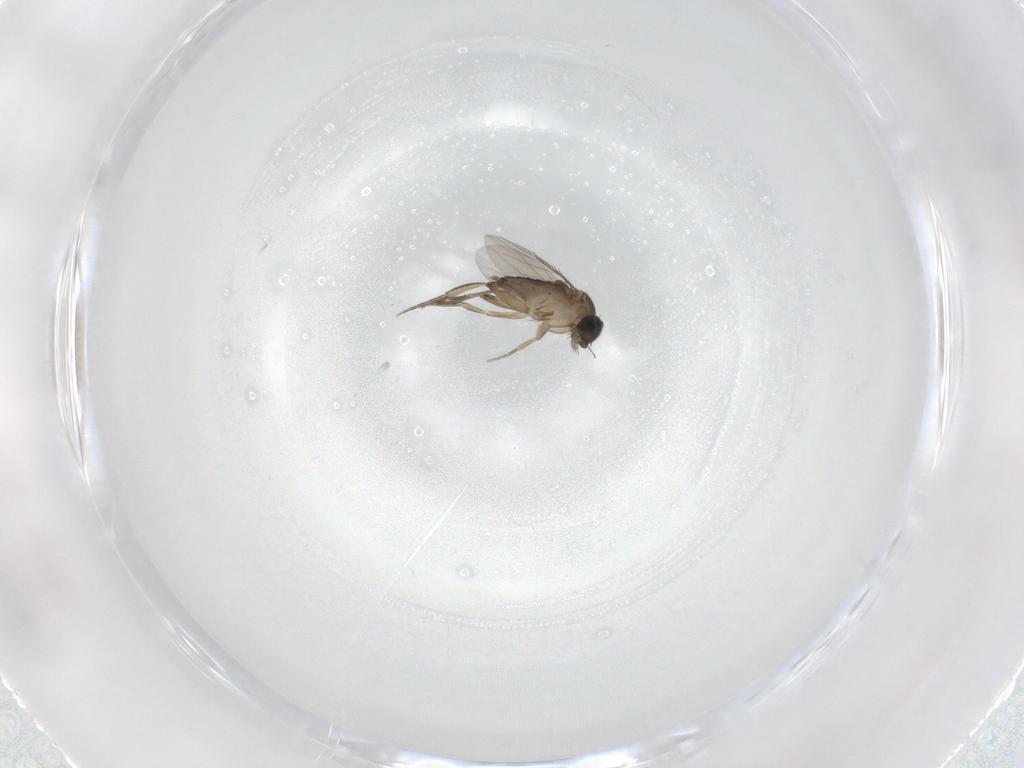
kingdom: Animalia
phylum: Arthropoda
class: Insecta
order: Diptera
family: Phoridae
